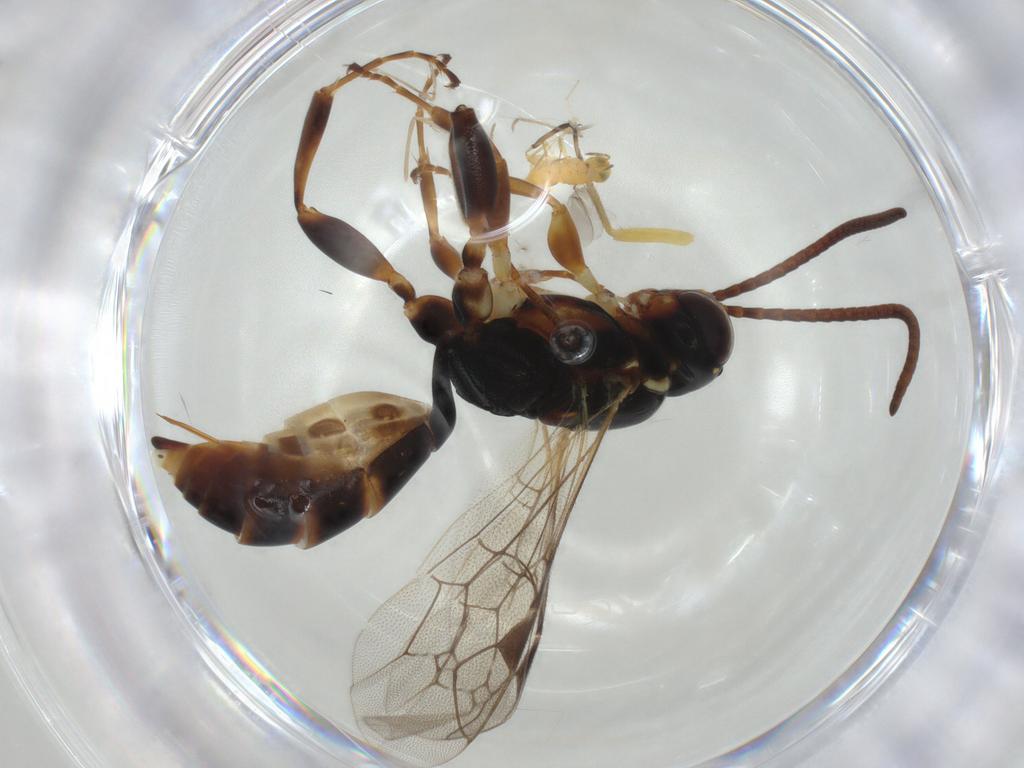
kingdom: Animalia
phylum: Arthropoda
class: Insecta
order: Hymenoptera
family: Ichneumonidae
